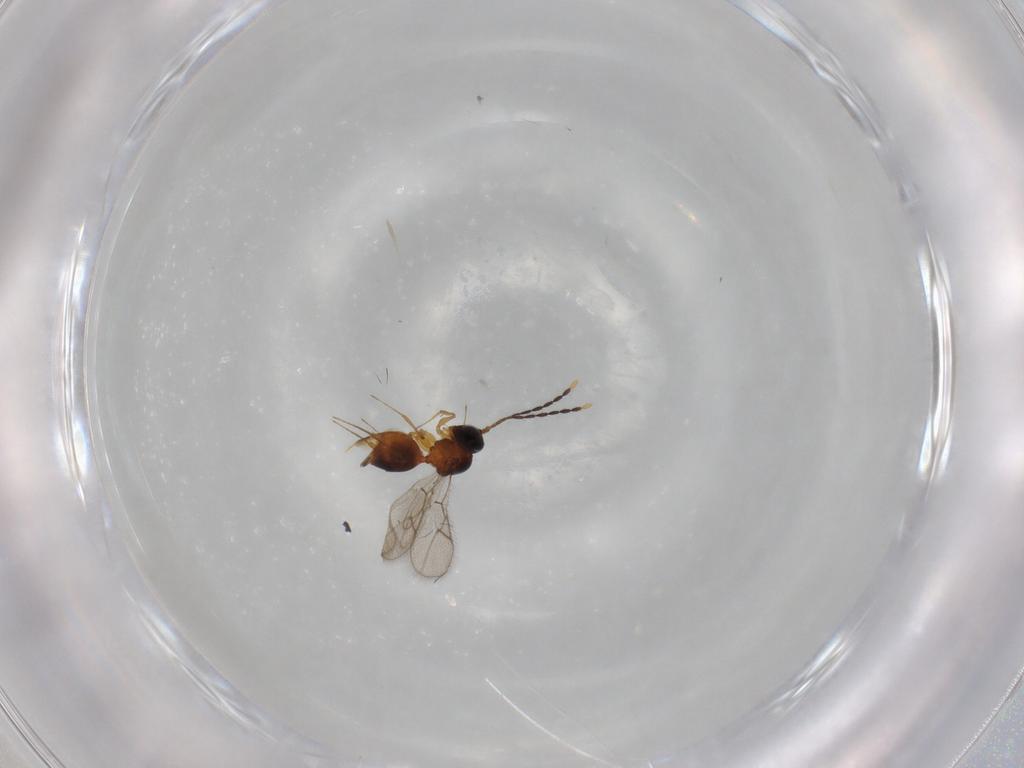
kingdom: Animalia
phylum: Arthropoda
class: Insecta
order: Hymenoptera
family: Figitidae
